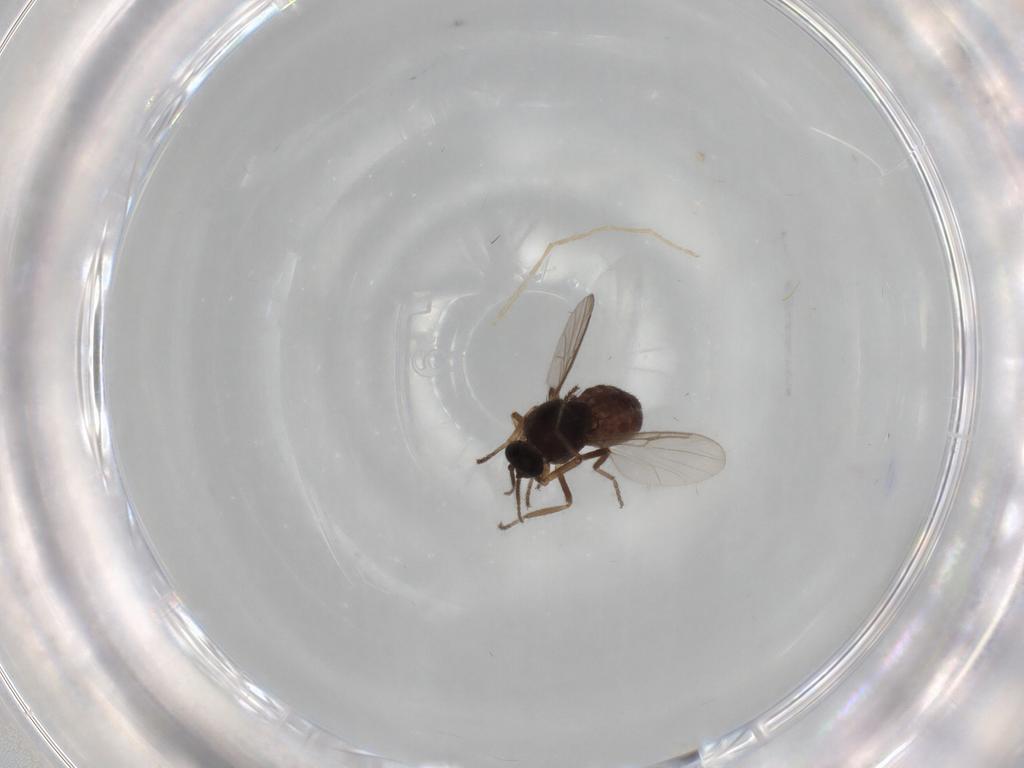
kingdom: Animalia
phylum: Arthropoda
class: Insecta
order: Diptera
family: Ceratopogonidae
